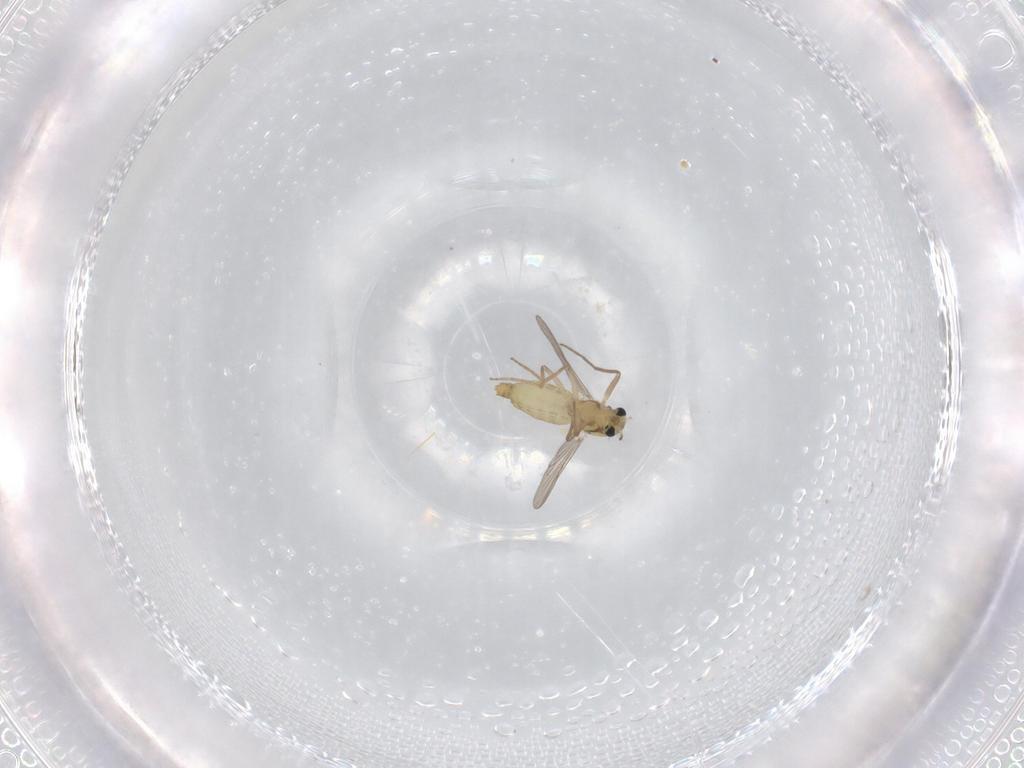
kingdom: Animalia
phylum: Arthropoda
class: Insecta
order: Diptera
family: Chironomidae
